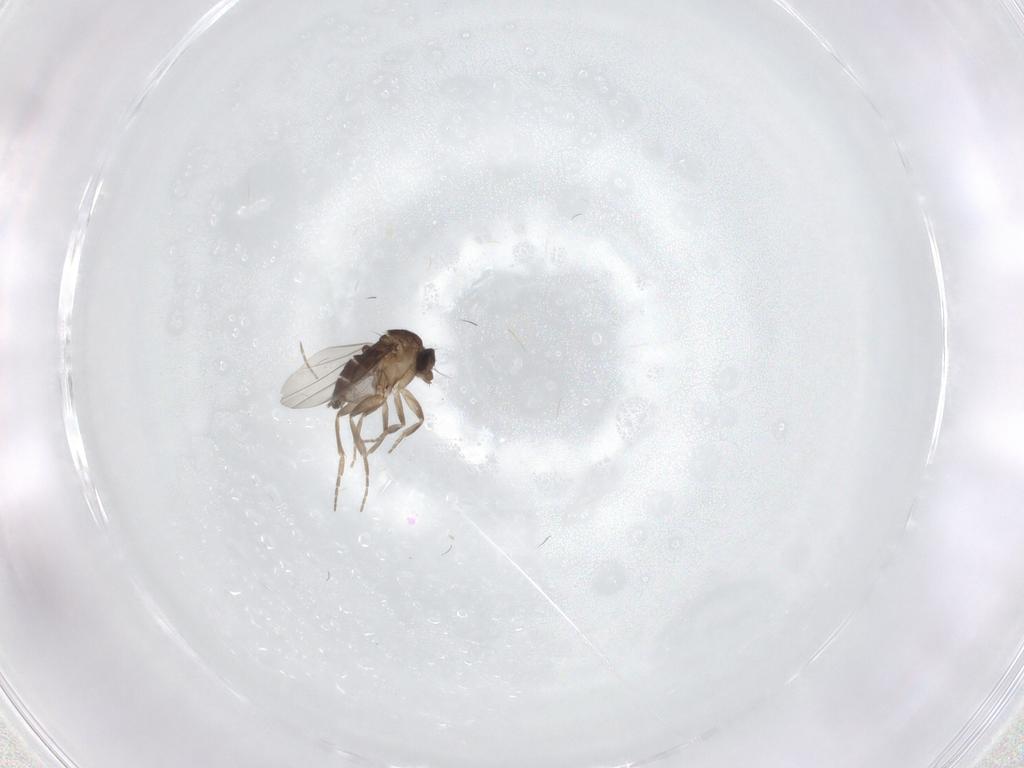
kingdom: Animalia
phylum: Arthropoda
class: Insecta
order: Diptera
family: Phoridae
